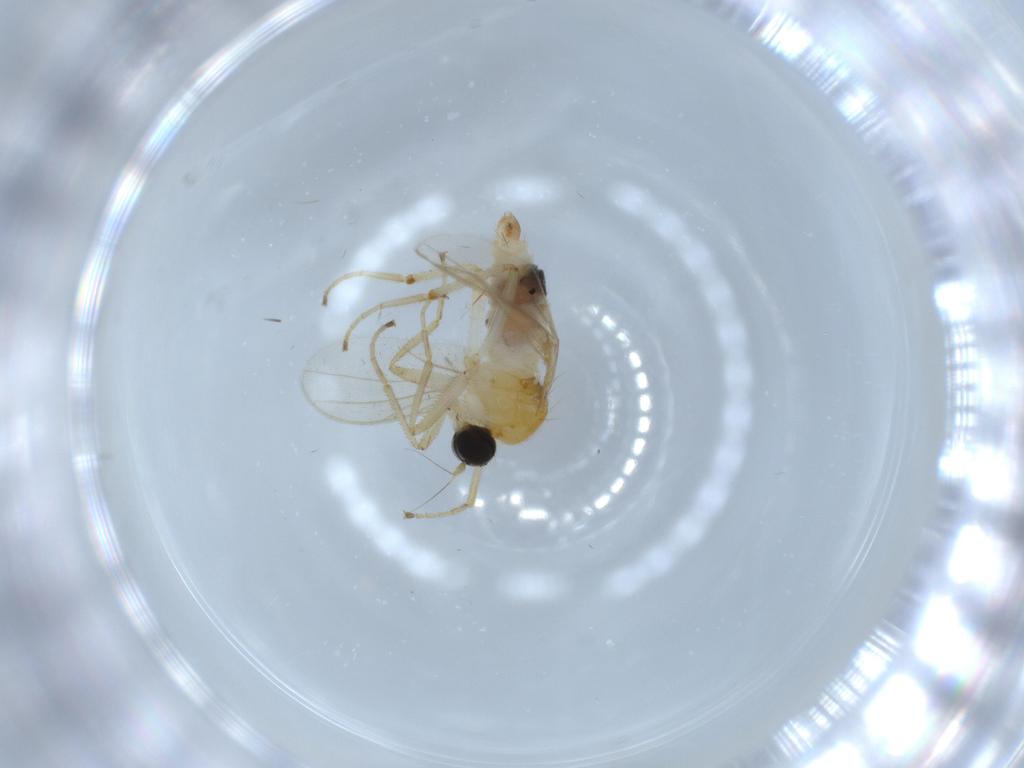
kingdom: Animalia
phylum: Arthropoda
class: Insecta
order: Diptera
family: Hybotidae
